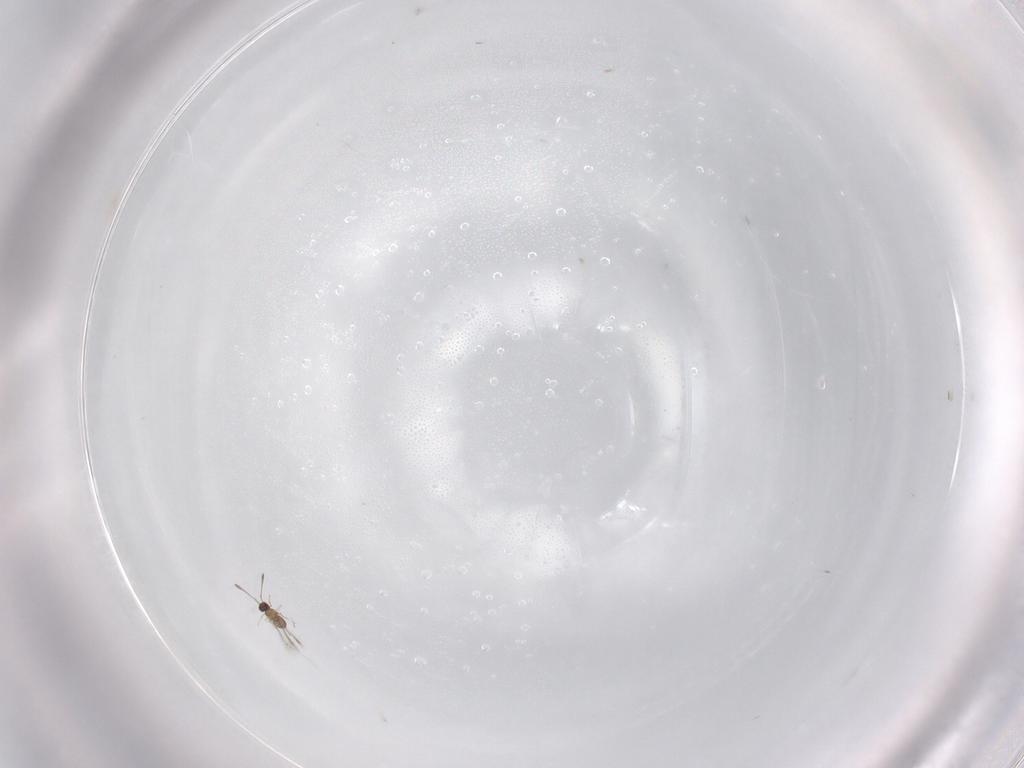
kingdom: Animalia
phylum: Arthropoda
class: Insecta
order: Hymenoptera
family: Mymaridae
